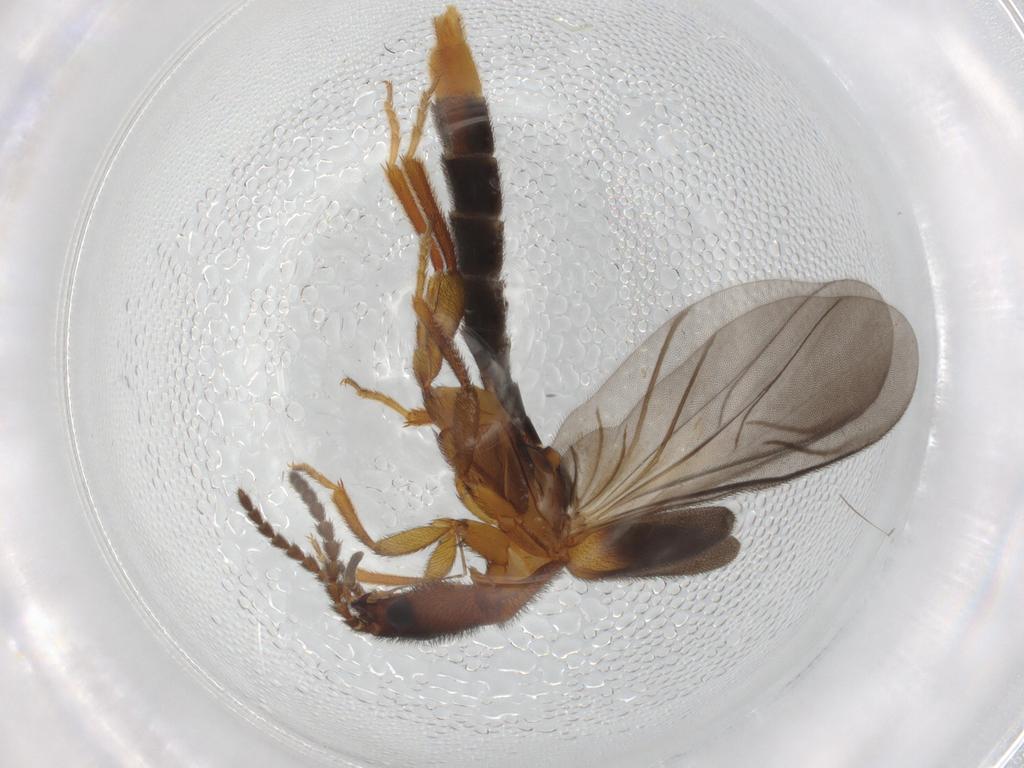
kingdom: Animalia
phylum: Arthropoda
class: Insecta
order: Coleoptera
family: Omethidae
